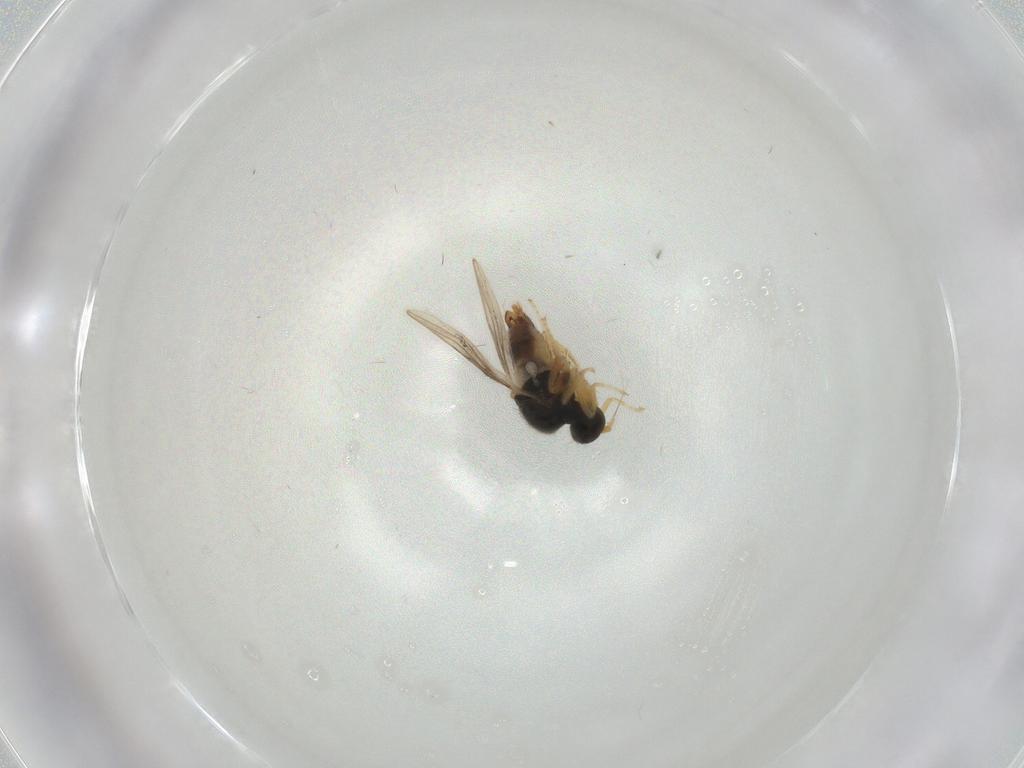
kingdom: Animalia
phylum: Arthropoda
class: Insecta
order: Diptera
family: Hybotidae
